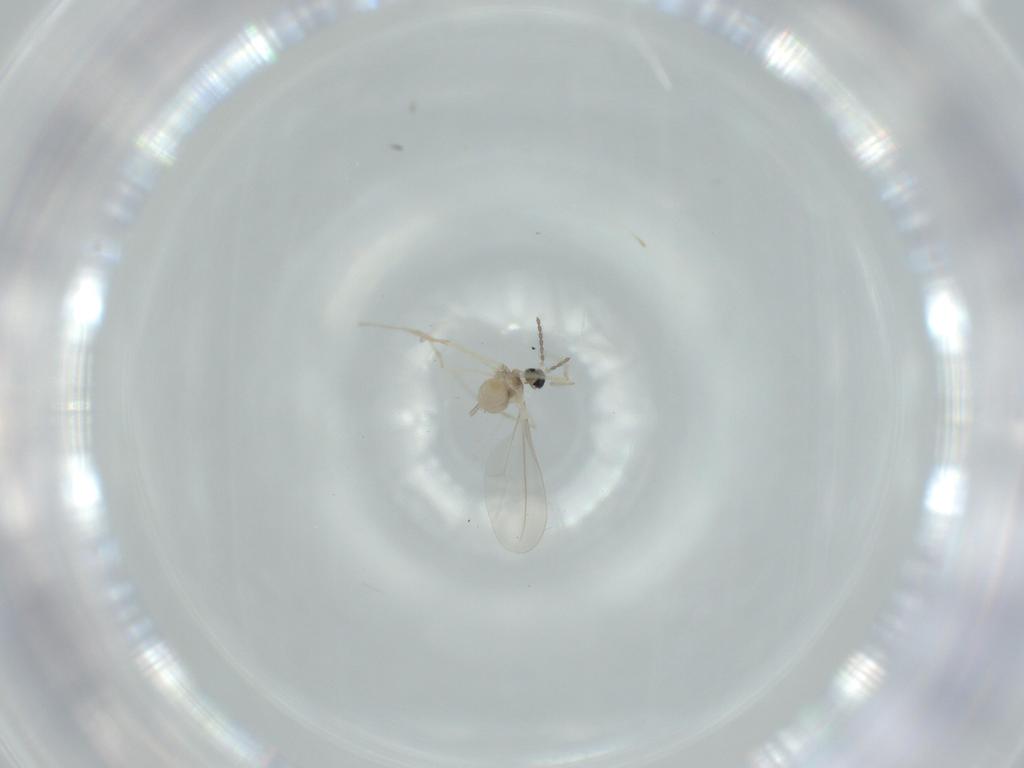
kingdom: Animalia
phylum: Arthropoda
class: Insecta
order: Diptera
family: Cecidomyiidae
